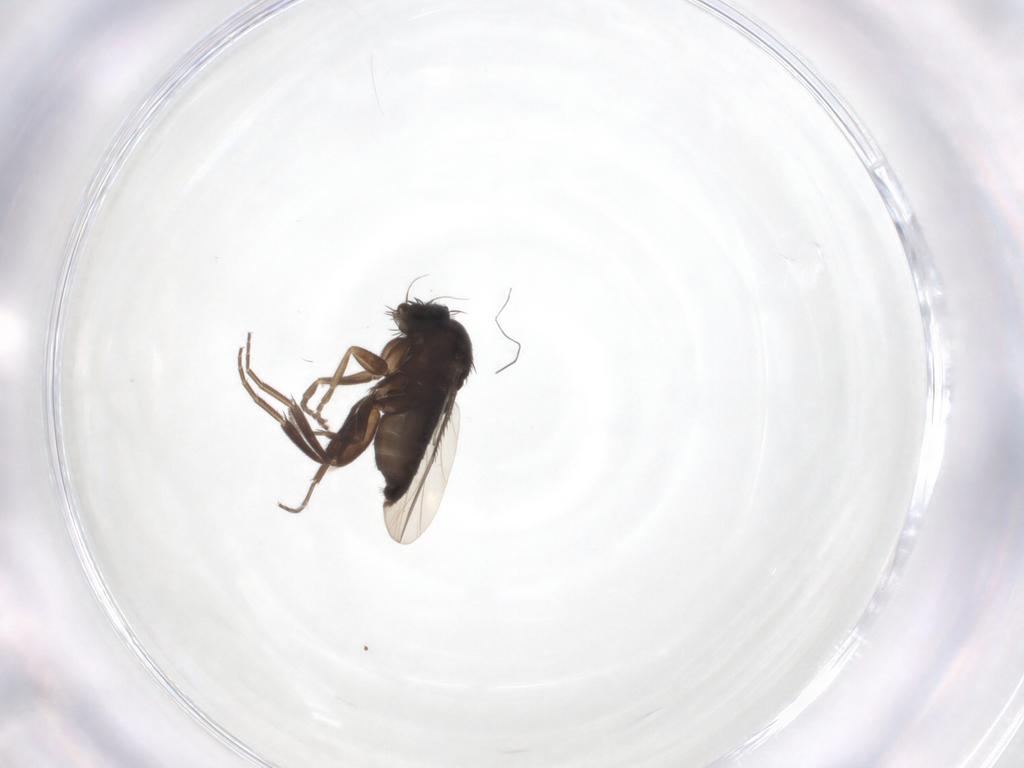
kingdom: Animalia
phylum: Arthropoda
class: Insecta
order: Diptera
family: Phoridae
